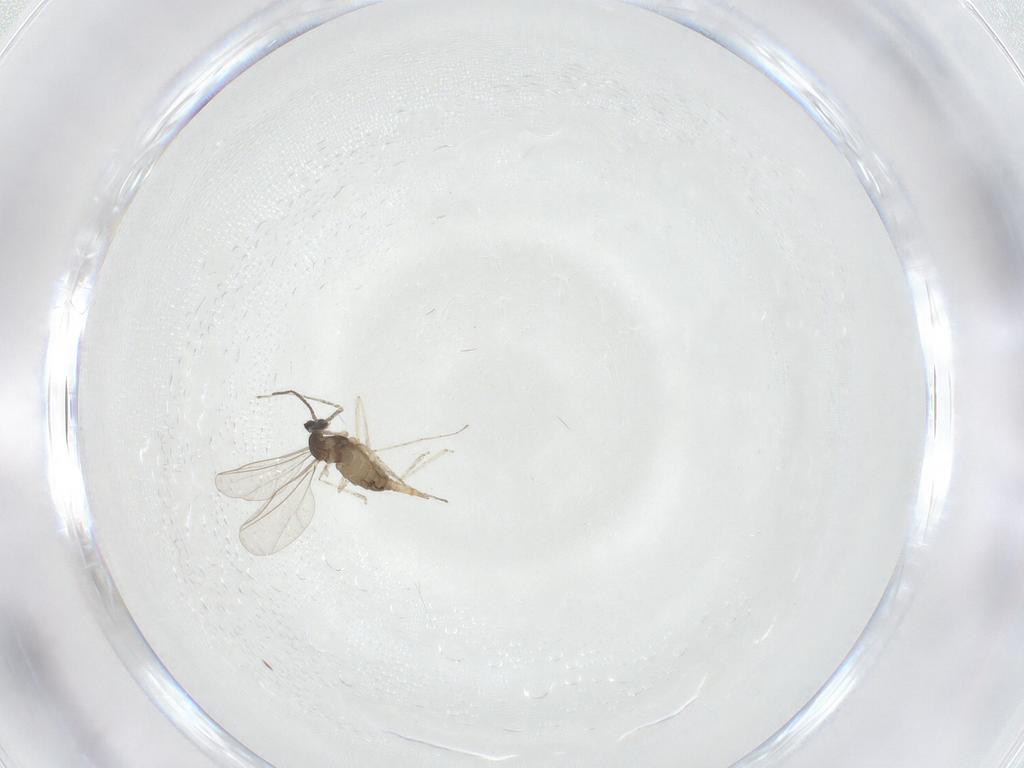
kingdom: Animalia
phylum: Arthropoda
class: Insecta
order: Diptera
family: Cecidomyiidae
